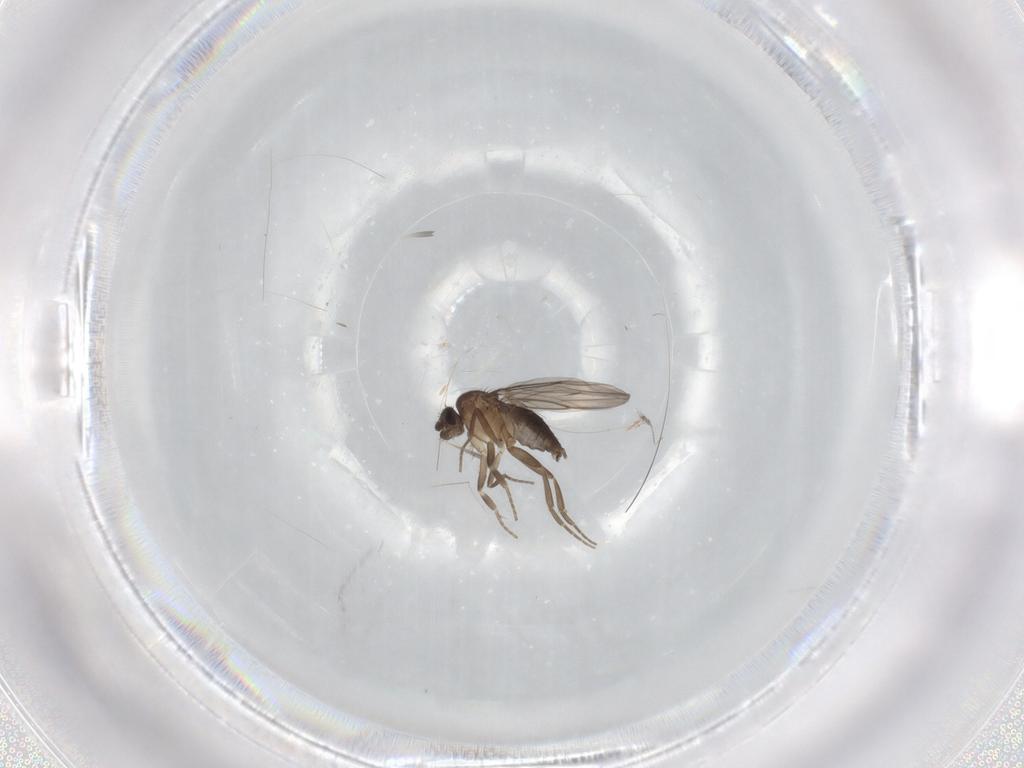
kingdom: Animalia
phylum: Arthropoda
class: Insecta
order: Diptera
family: Phoridae
